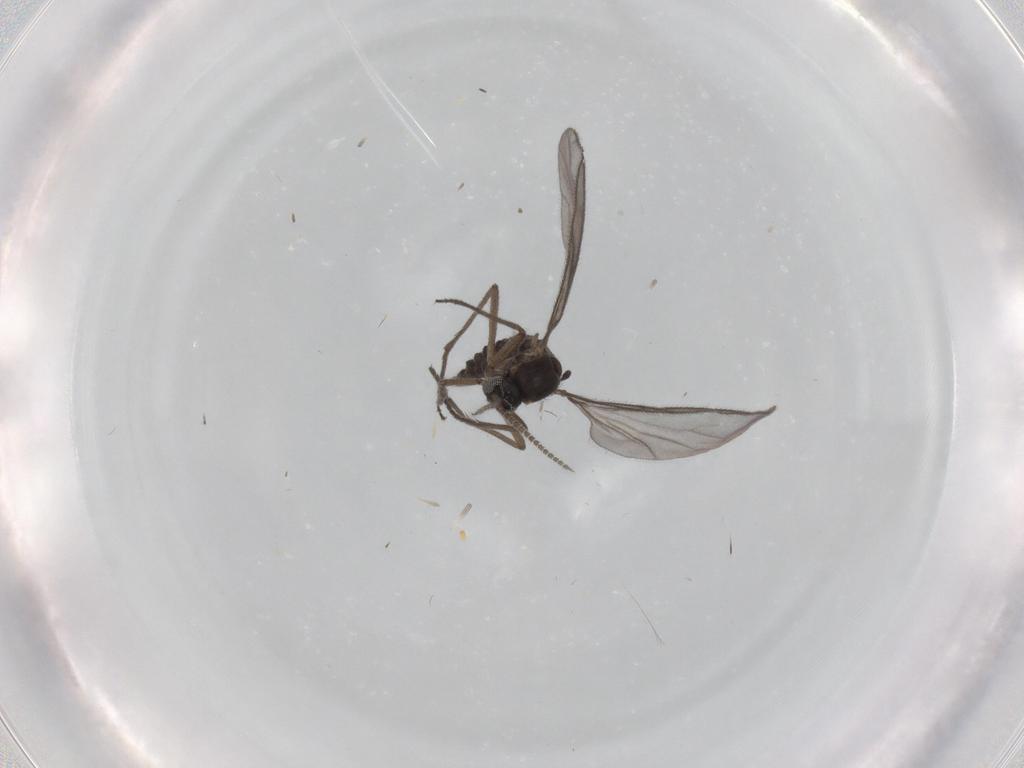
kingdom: Animalia
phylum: Arthropoda
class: Insecta
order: Diptera
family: Sciaridae
